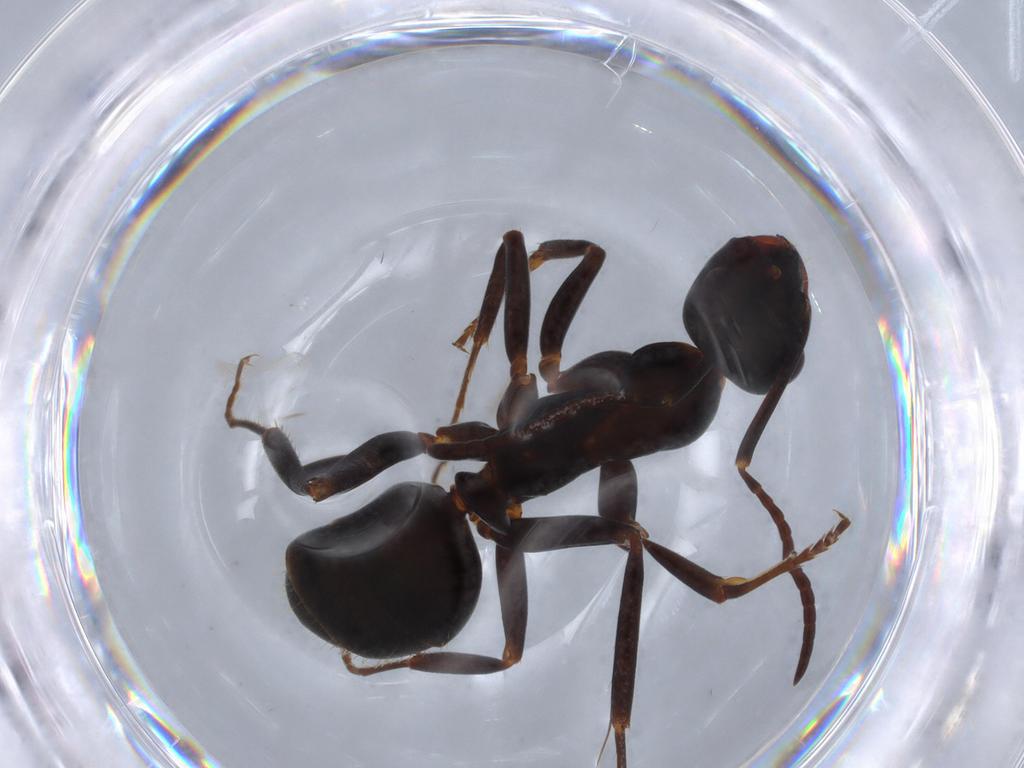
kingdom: Animalia
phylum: Arthropoda
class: Insecta
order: Hymenoptera
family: Formicidae
